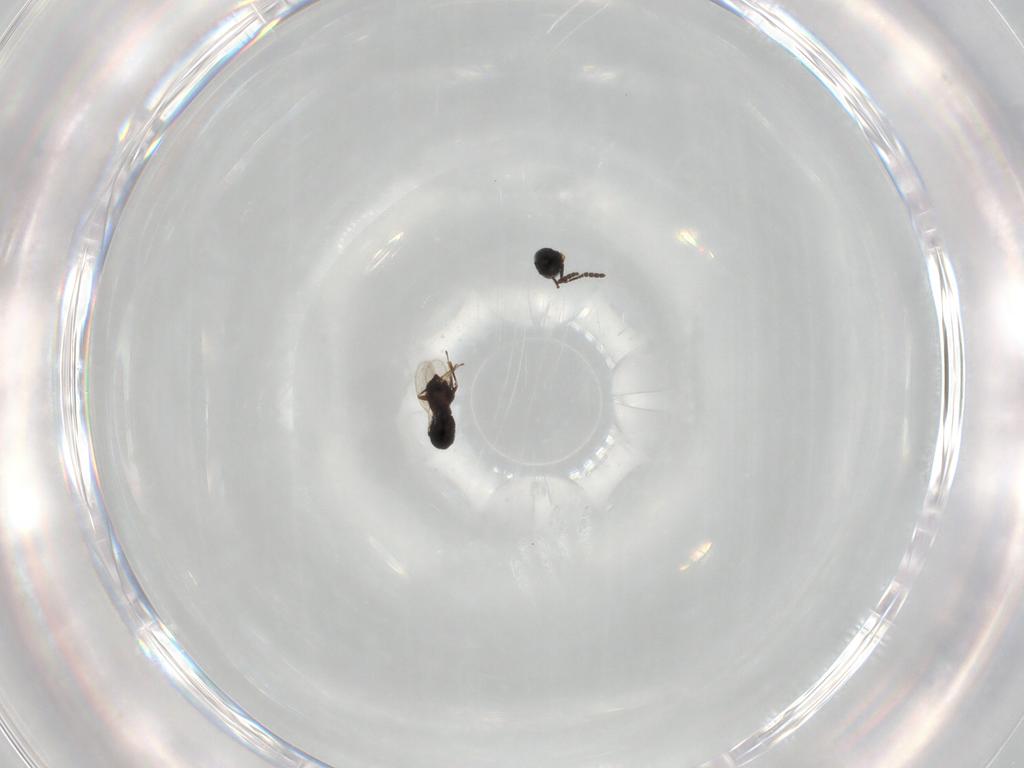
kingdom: Animalia
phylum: Arthropoda
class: Insecta
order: Hymenoptera
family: Scelionidae
